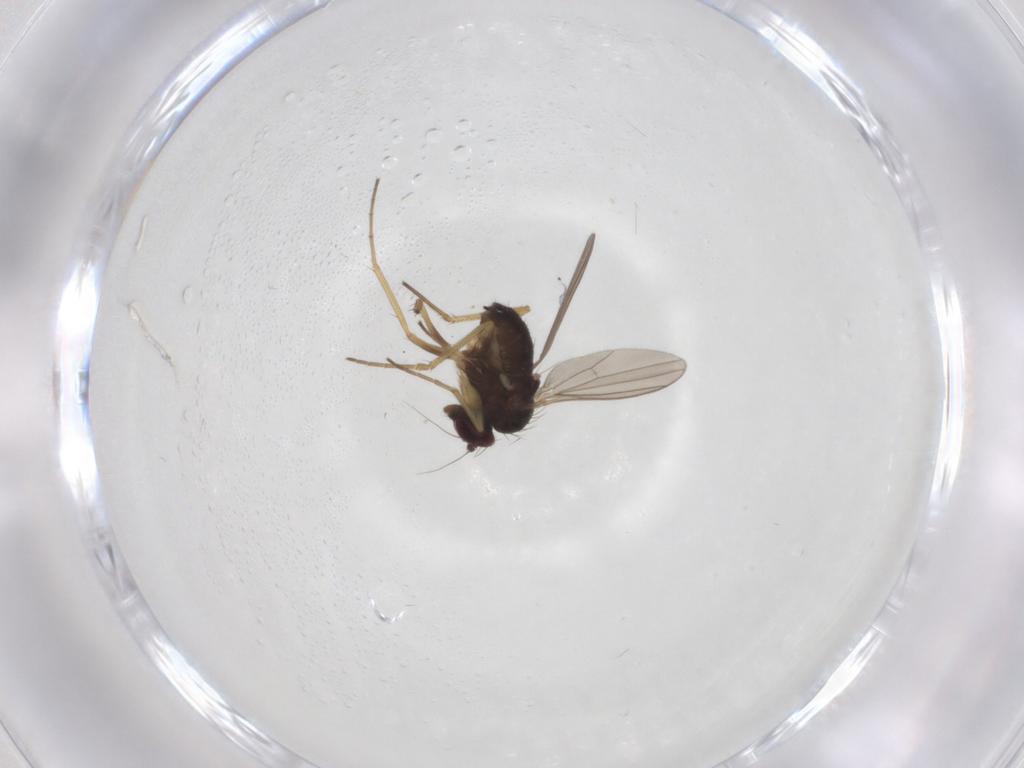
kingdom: Animalia
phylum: Arthropoda
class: Insecta
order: Diptera
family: Dolichopodidae
